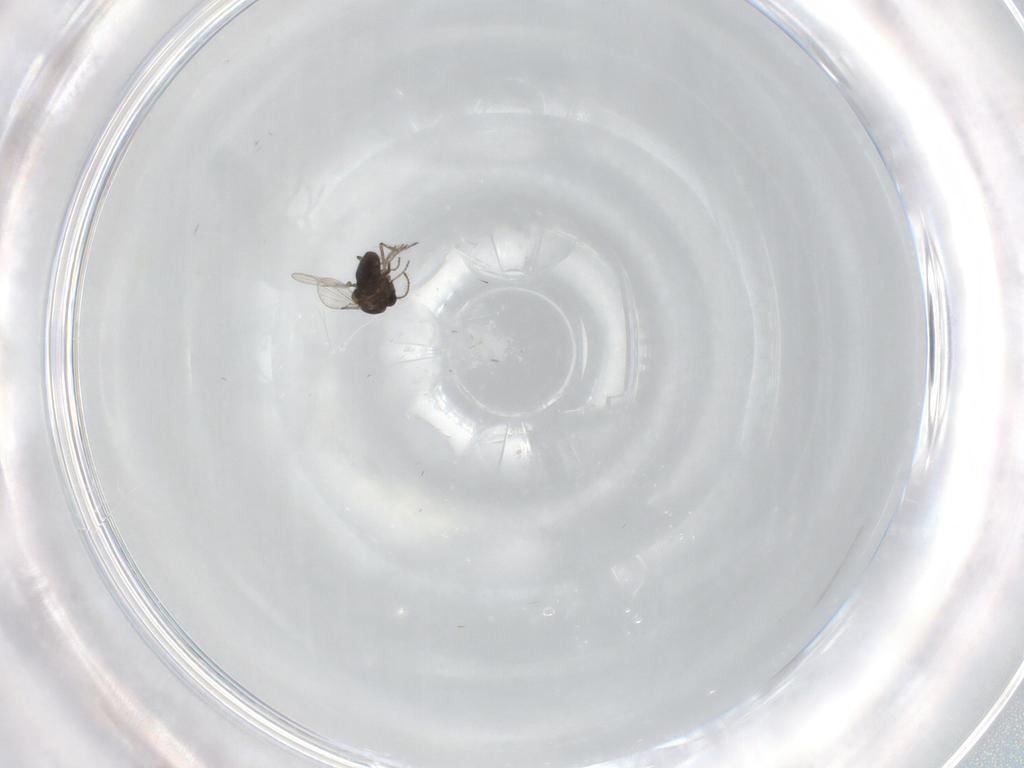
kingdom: Animalia
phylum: Arthropoda
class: Insecta
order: Diptera
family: Ceratopogonidae
